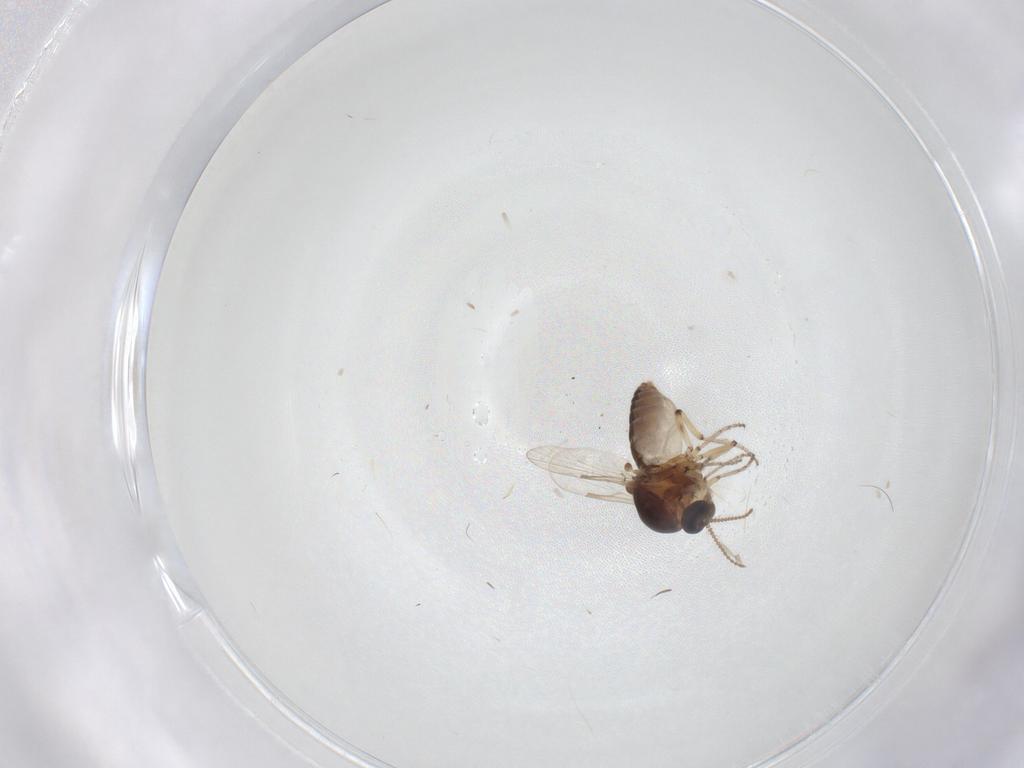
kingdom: Animalia
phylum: Arthropoda
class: Insecta
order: Diptera
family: Ceratopogonidae
